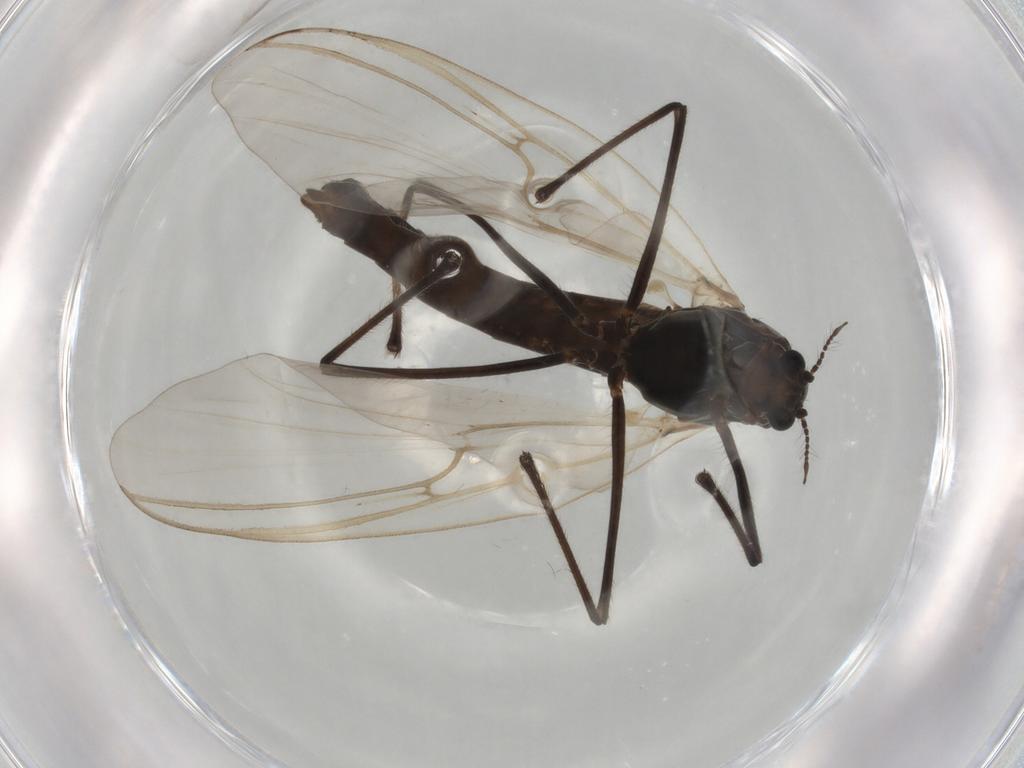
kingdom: Animalia
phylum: Arthropoda
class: Insecta
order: Diptera
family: Chironomidae
